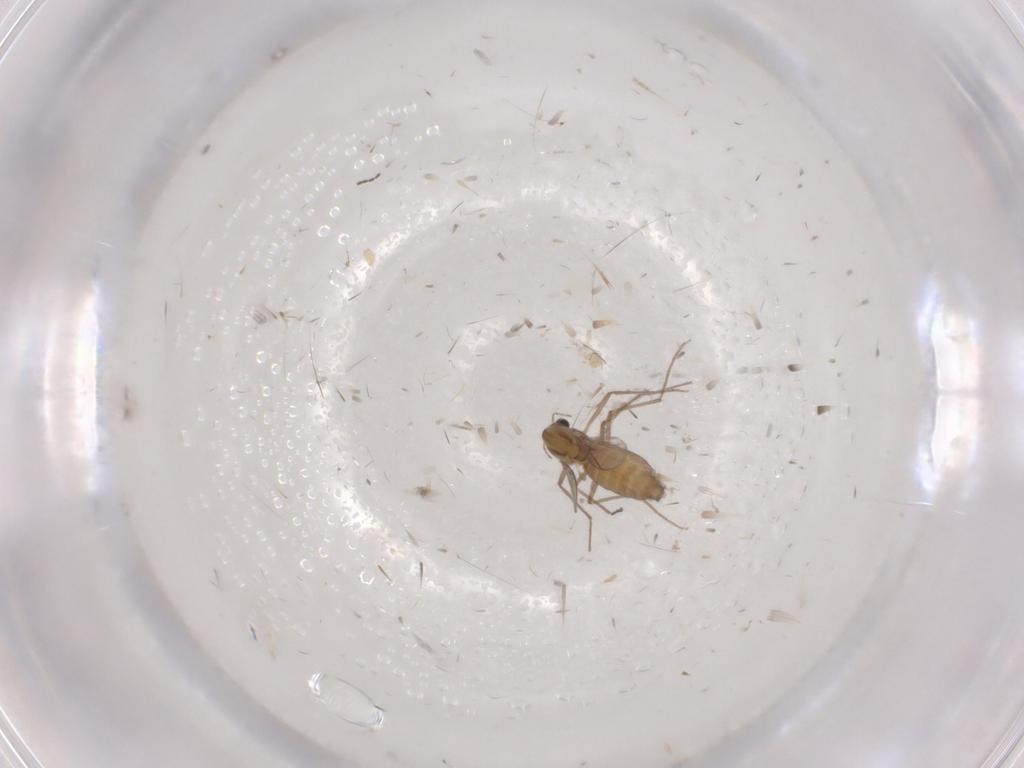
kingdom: Animalia
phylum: Arthropoda
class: Insecta
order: Diptera
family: Chironomidae
